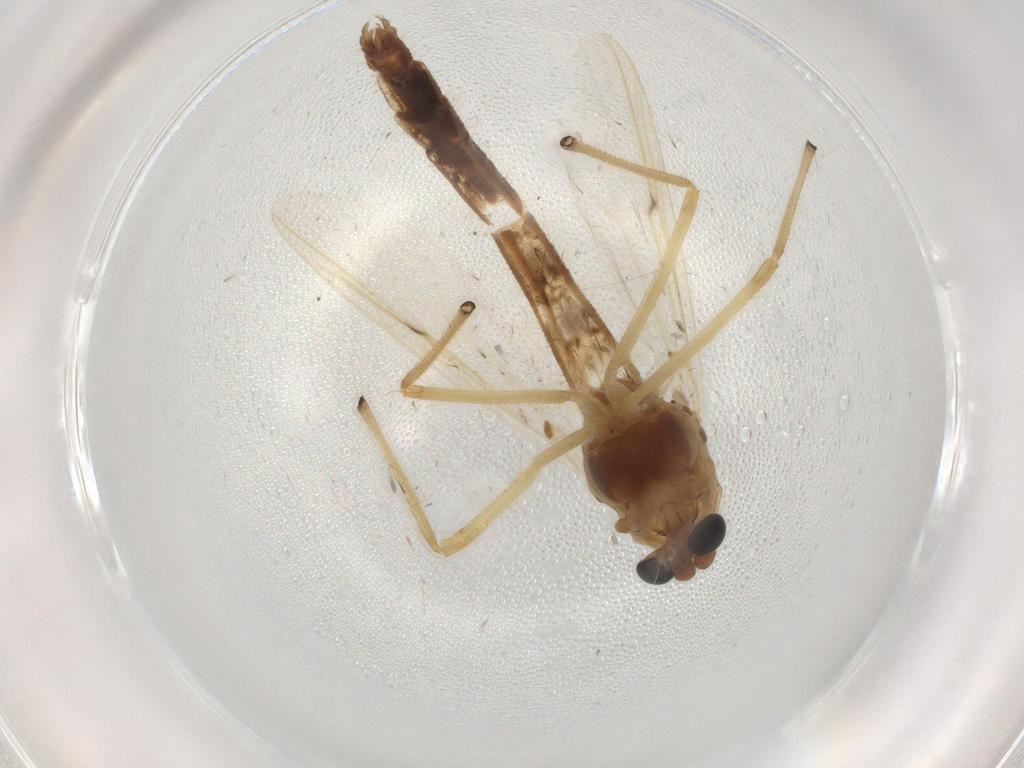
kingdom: Animalia
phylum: Arthropoda
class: Insecta
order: Diptera
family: Chironomidae
